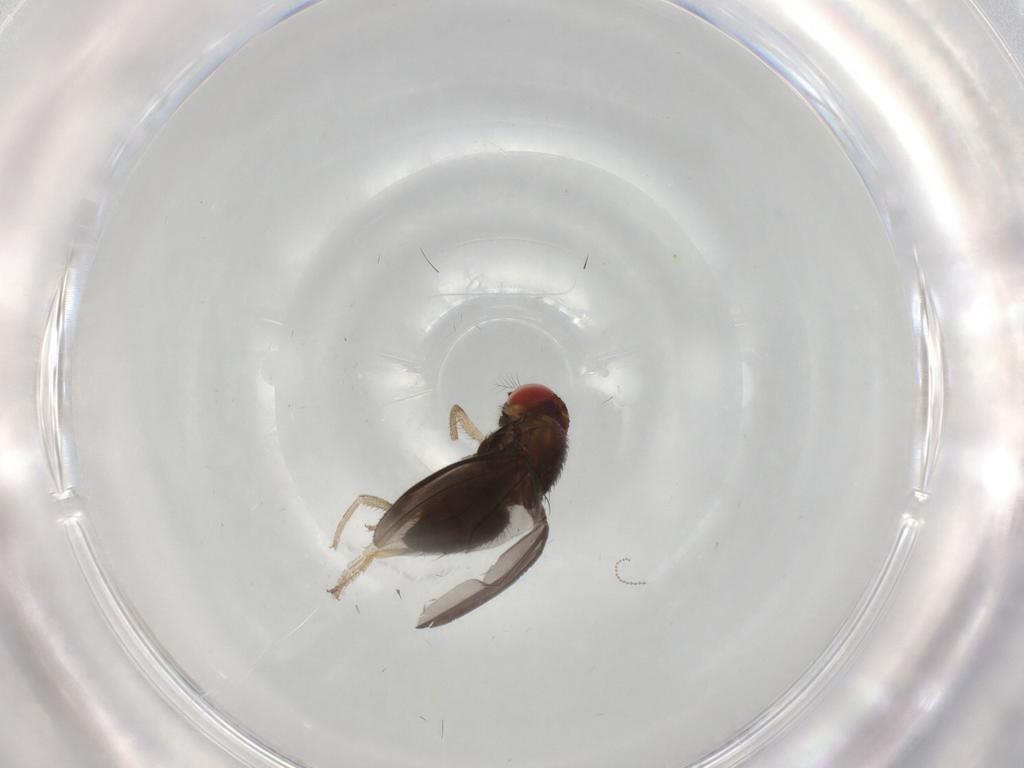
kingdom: Animalia
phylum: Arthropoda
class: Insecta
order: Diptera
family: Drosophilidae
